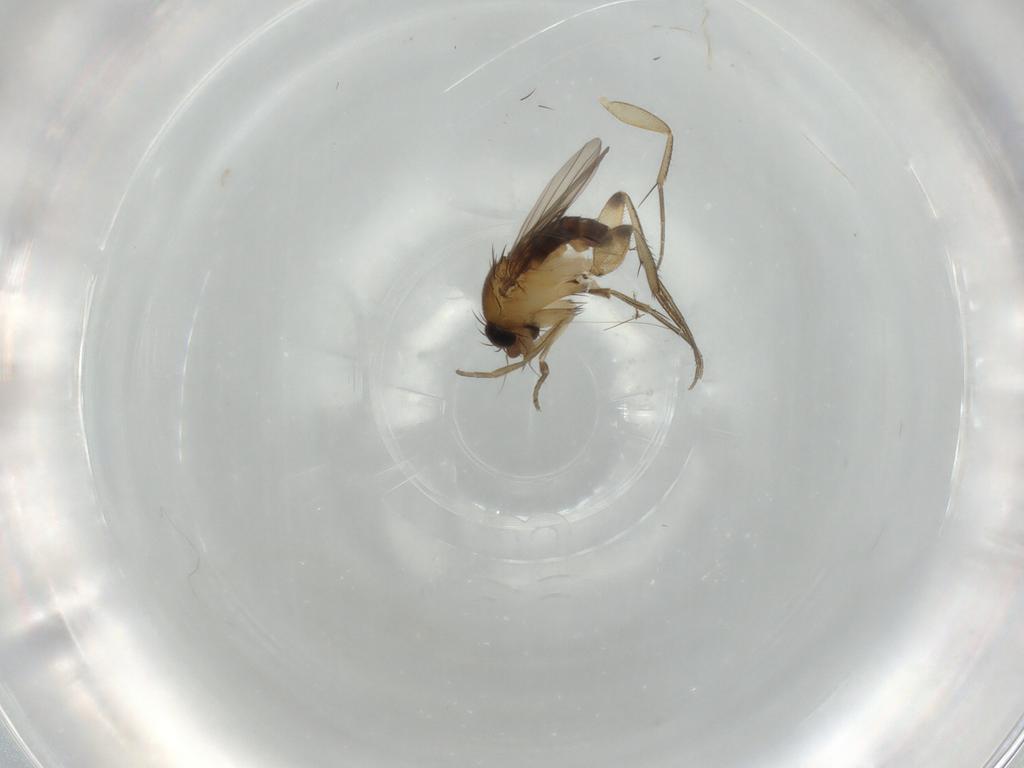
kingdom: Animalia
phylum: Arthropoda
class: Insecta
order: Diptera
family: Phoridae
